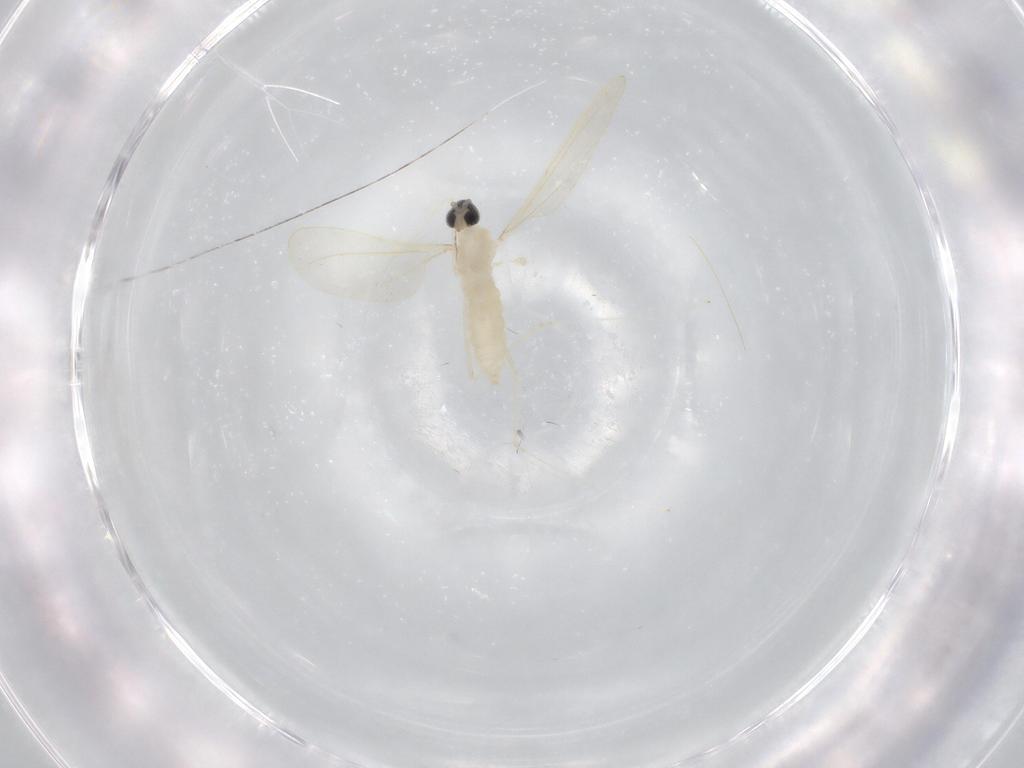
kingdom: Animalia
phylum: Arthropoda
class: Insecta
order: Diptera
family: Cecidomyiidae
